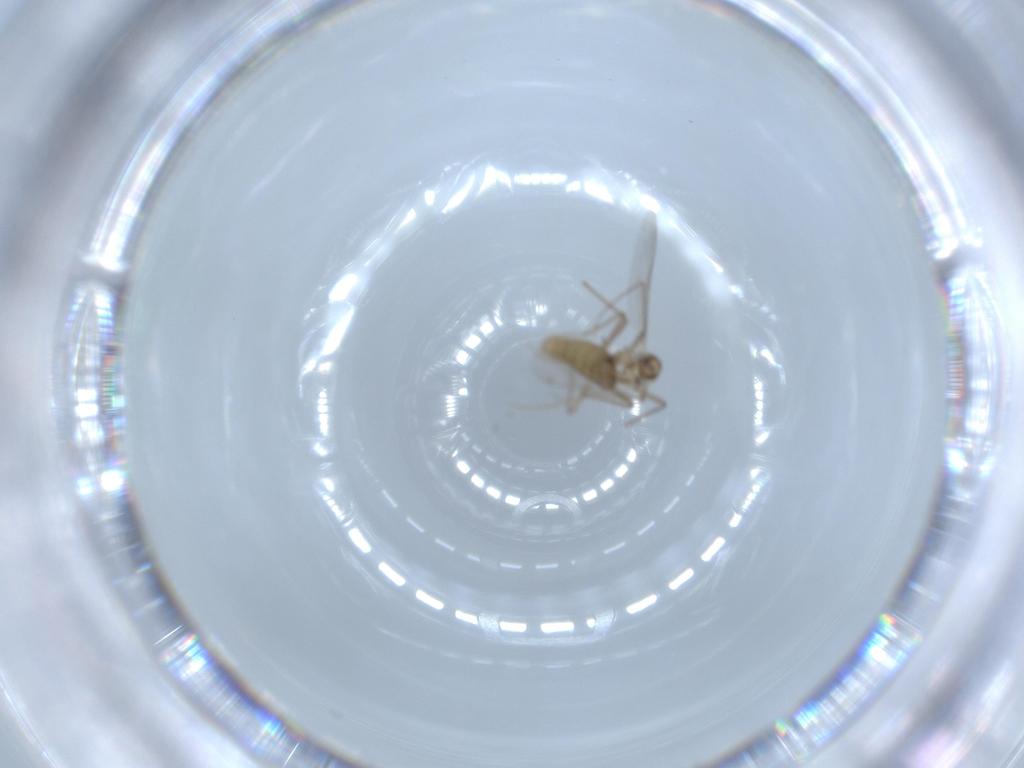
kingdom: Animalia
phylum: Arthropoda
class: Insecta
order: Diptera
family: Chironomidae
